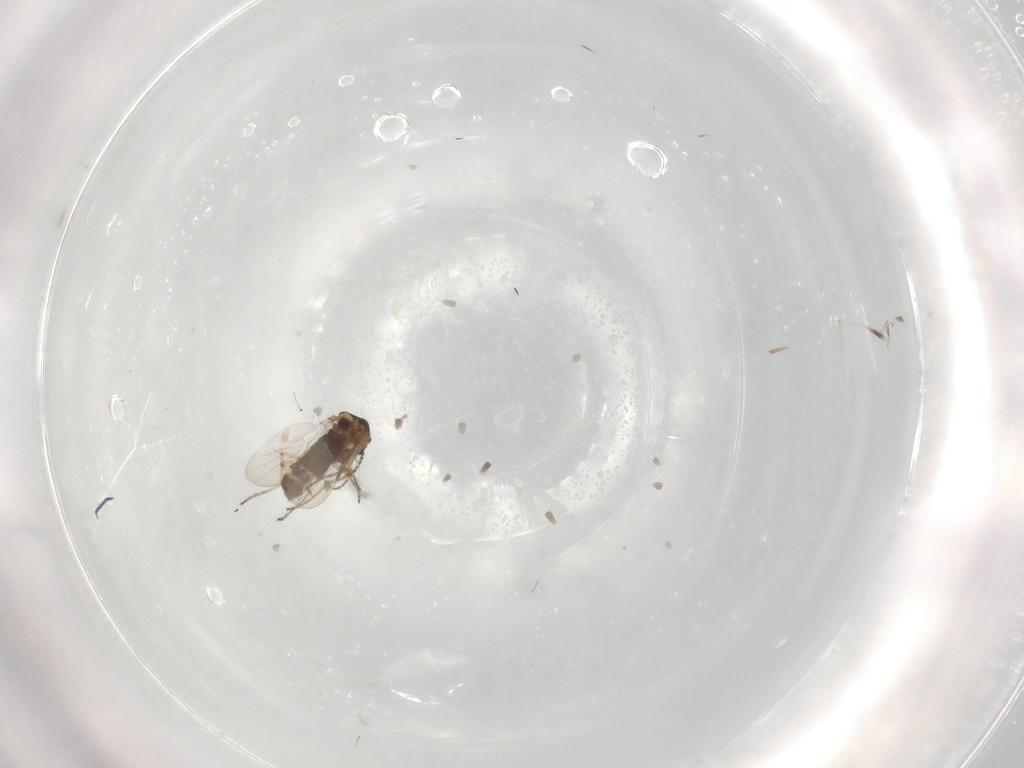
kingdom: Animalia
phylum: Arthropoda
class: Insecta
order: Diptera
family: Ceratopogonidae
